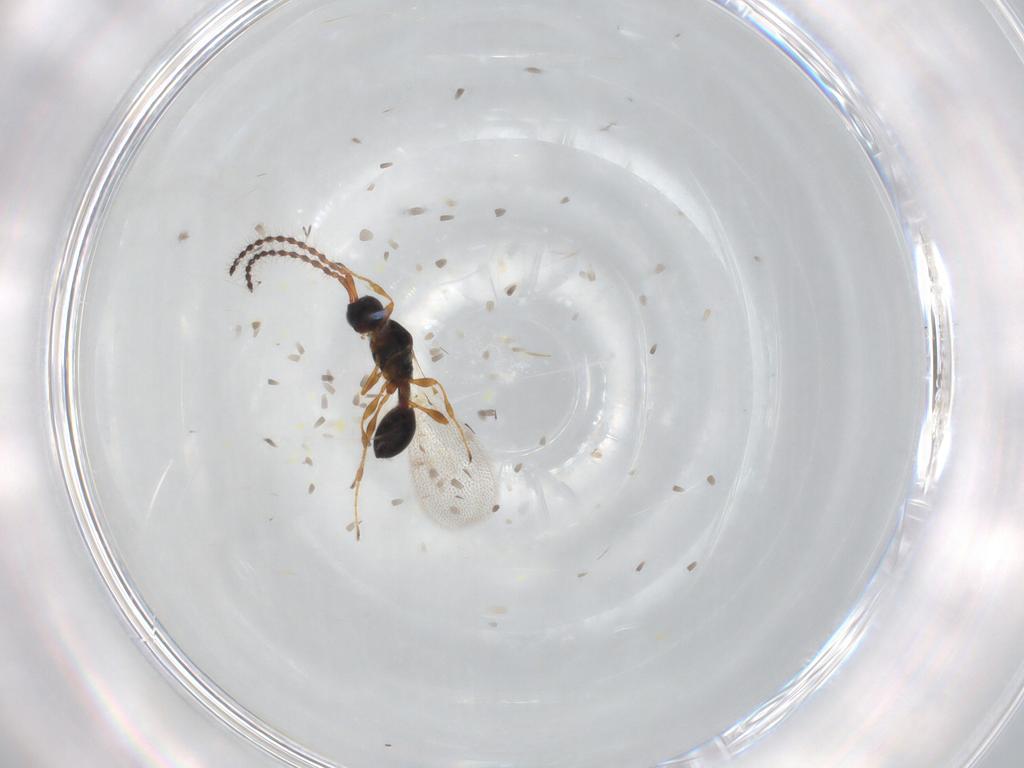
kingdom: Animalia
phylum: Arthropoda
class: Insecta
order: Hymenoptera
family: Diapriidae
